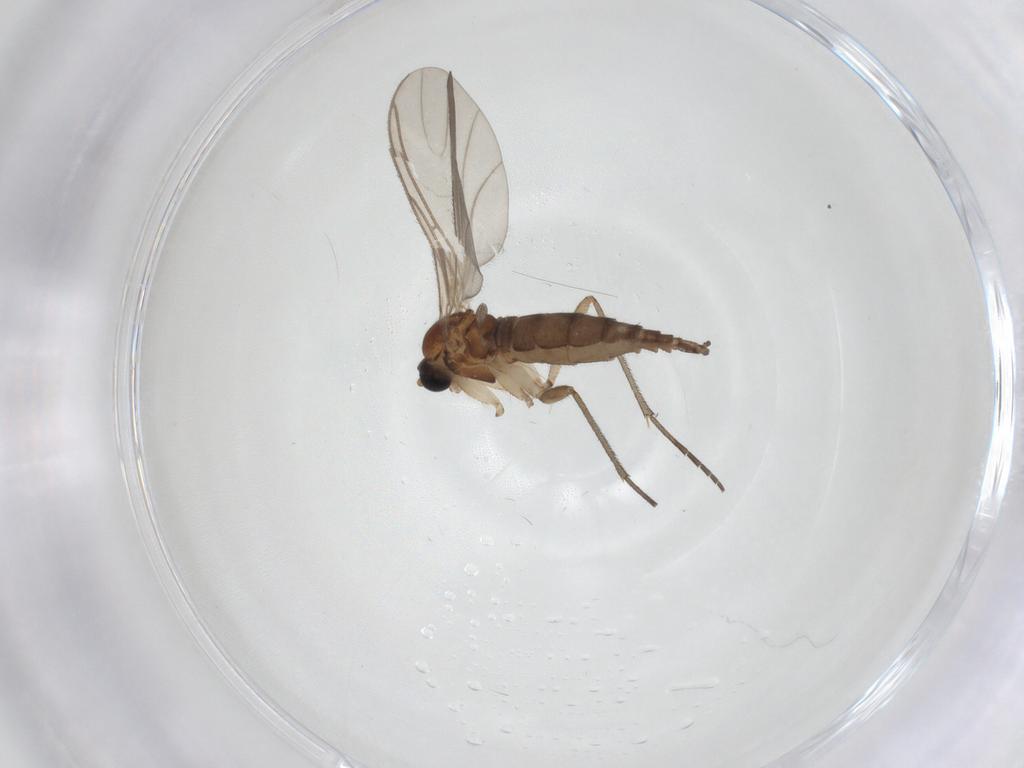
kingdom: Animalia
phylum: Arthropoda
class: Insecta
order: Diptera
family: Sciaridae
